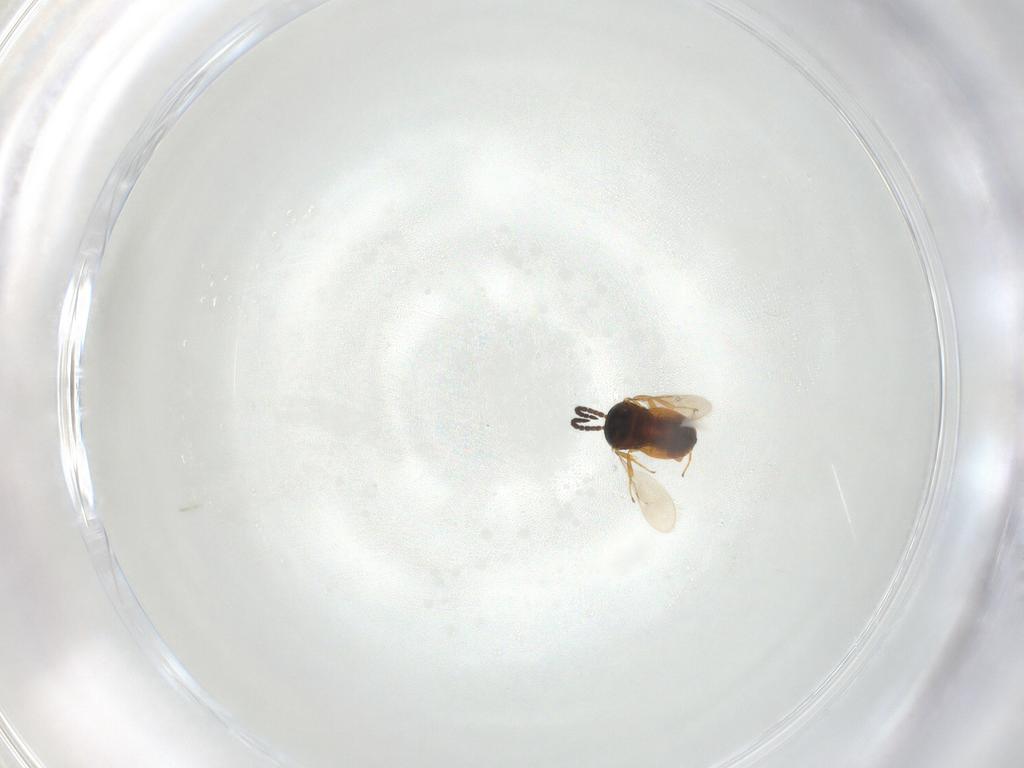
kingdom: Animalia
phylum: Arthropoda
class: Insecta
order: Hymenoptera
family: Scelionidae
